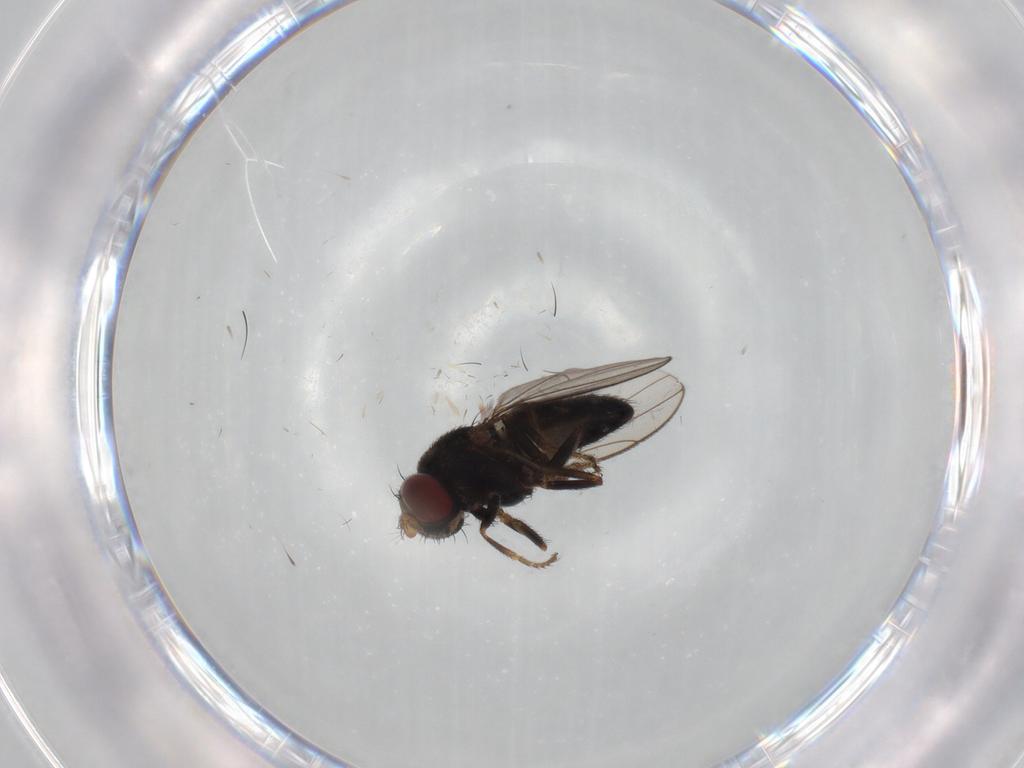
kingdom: Animalia
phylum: Arthropoda
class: Insecta
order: Diptera
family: Ephydridae
